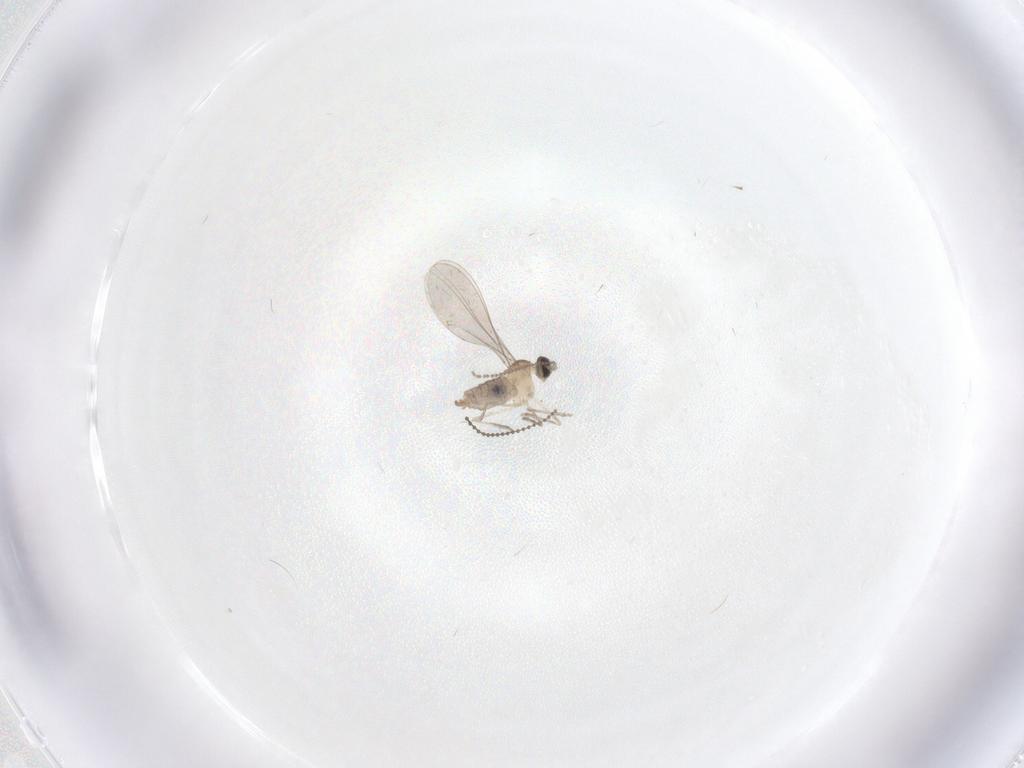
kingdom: Animalia
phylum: Arthropoda
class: Insecta
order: Diptera
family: Cecidomyiidae
